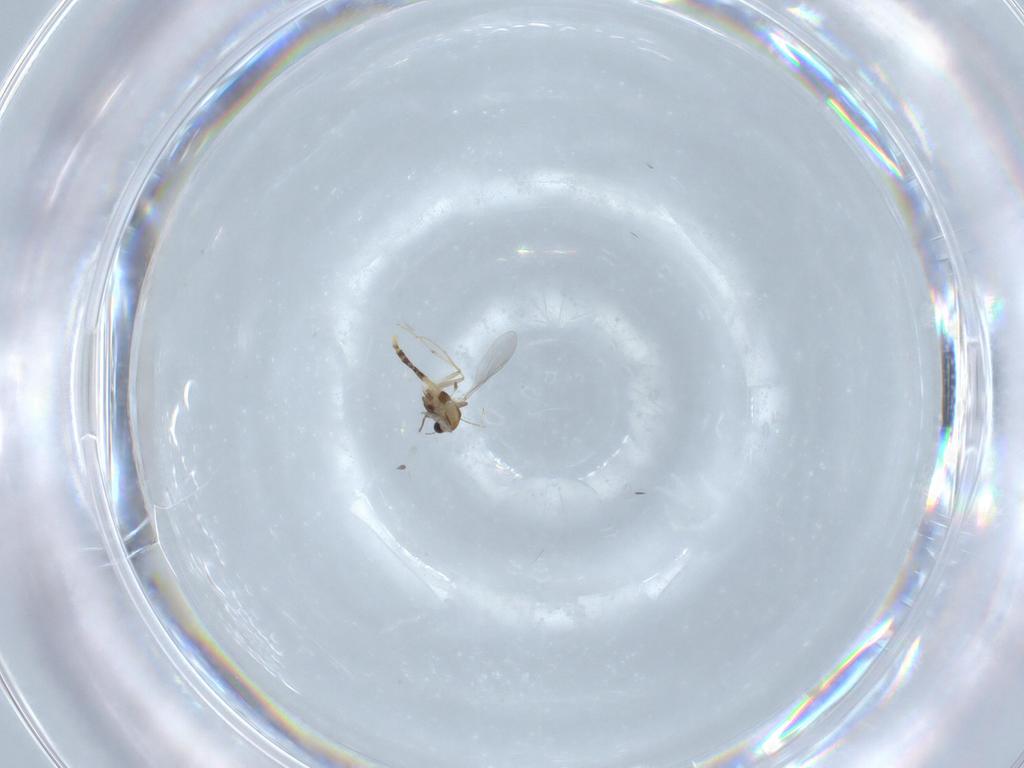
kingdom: Animalia
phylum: Arthropoda
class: Insecta
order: Diptera
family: Chironomidae
